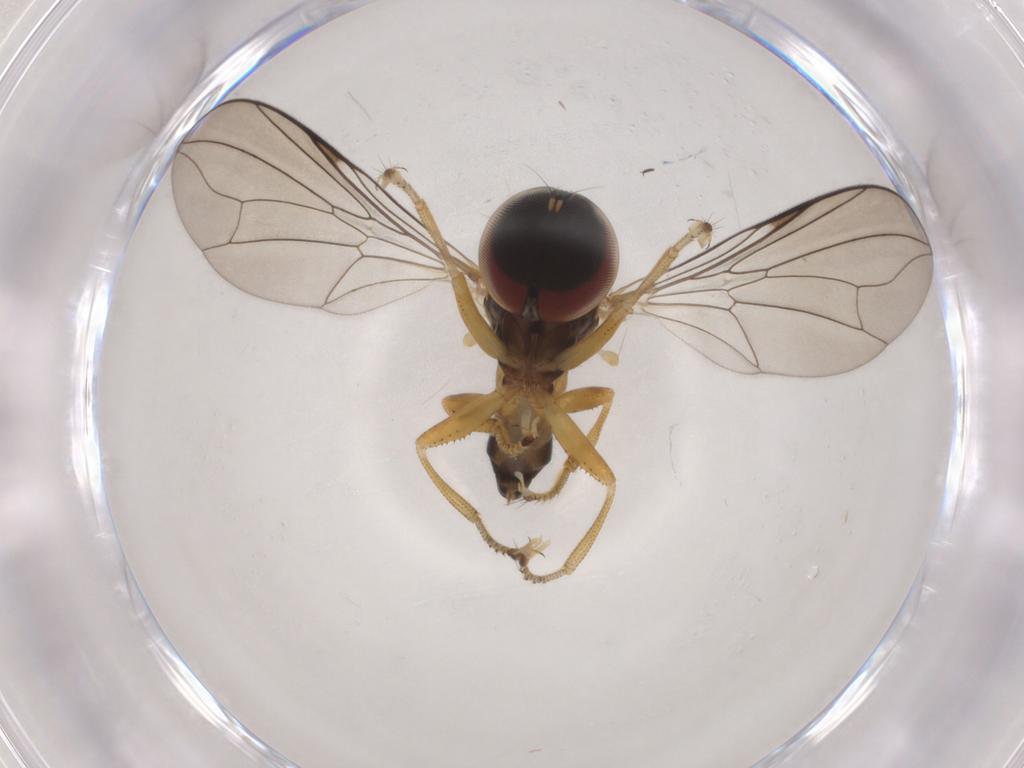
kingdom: Animalia
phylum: Arthropoda
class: Insecta
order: Diptera
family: Pipunculidae
